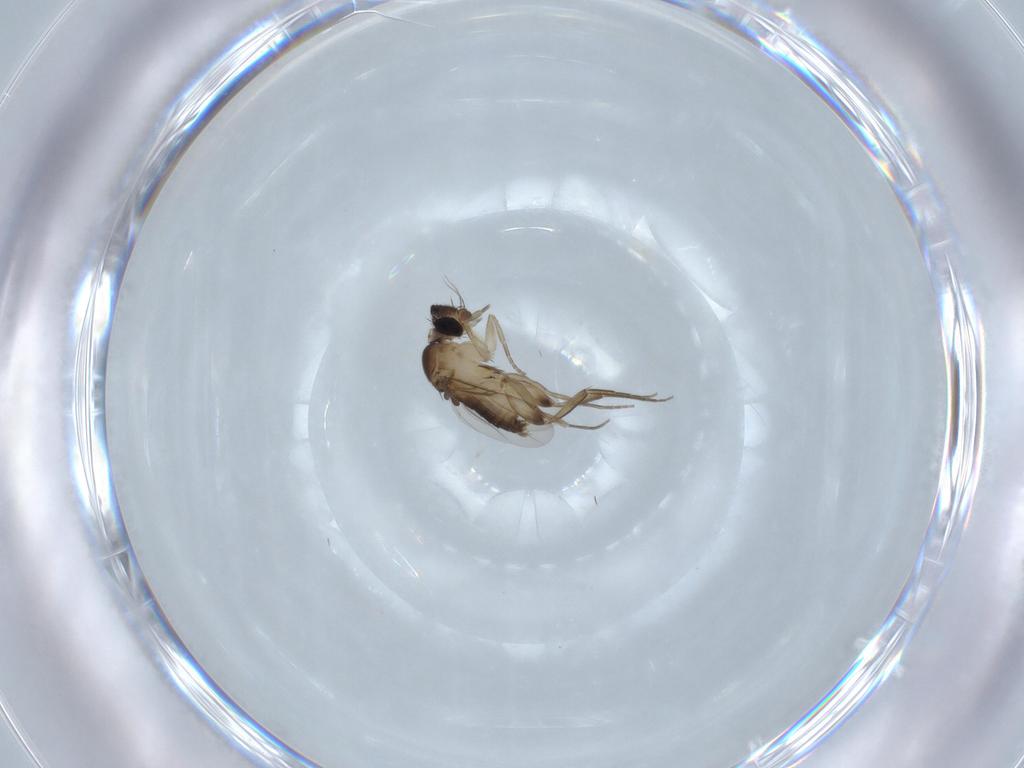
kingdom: Animalia
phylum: Arthropoda
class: Insecta
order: Diptera
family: Phoridae
